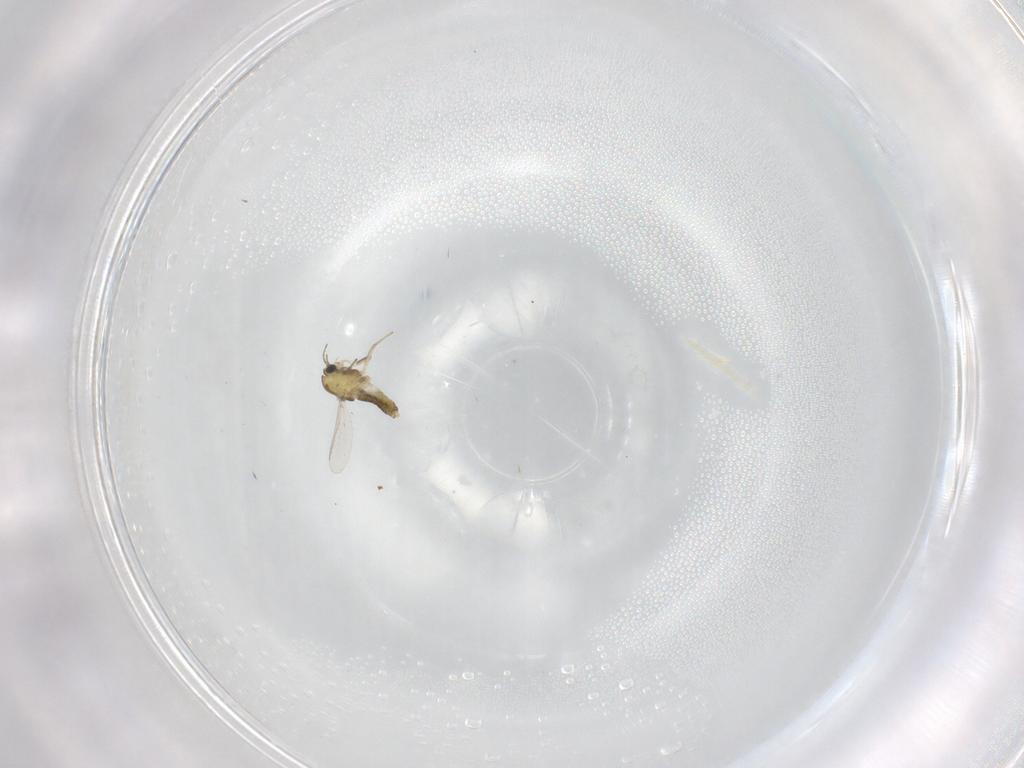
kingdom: Animalia
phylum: Arthropoda
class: Insecta
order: Diptera
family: Chironomidae
